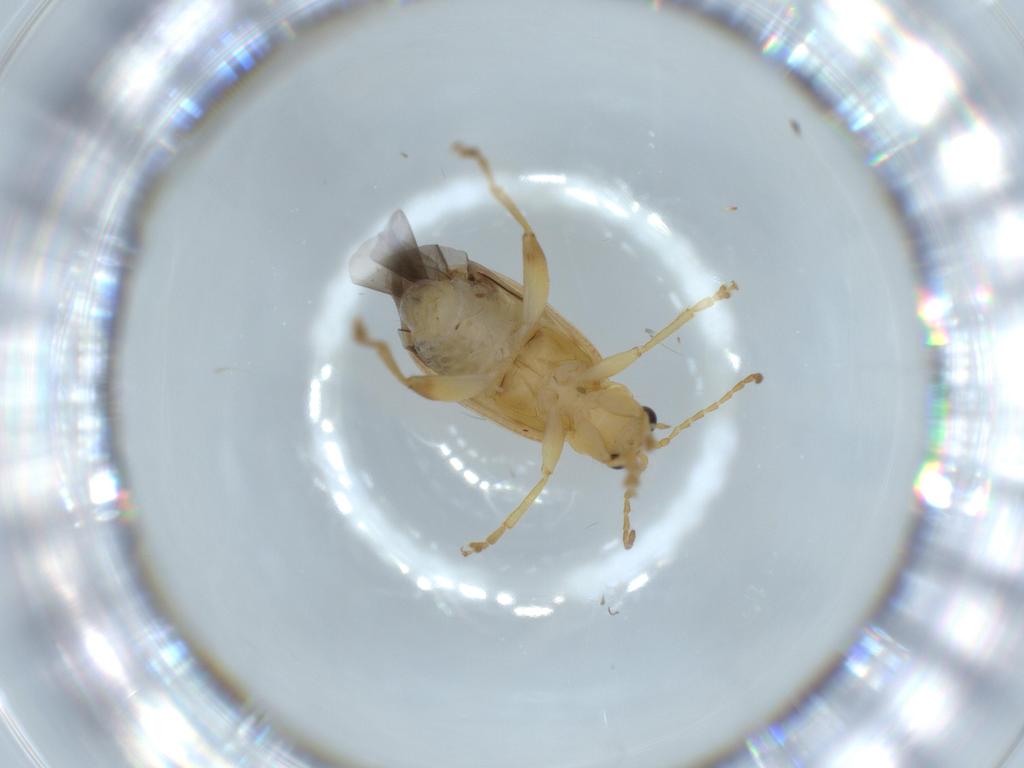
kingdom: Animalia
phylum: Arthropoda
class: Insecta
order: Coleoptera
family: Chrysomelidae
